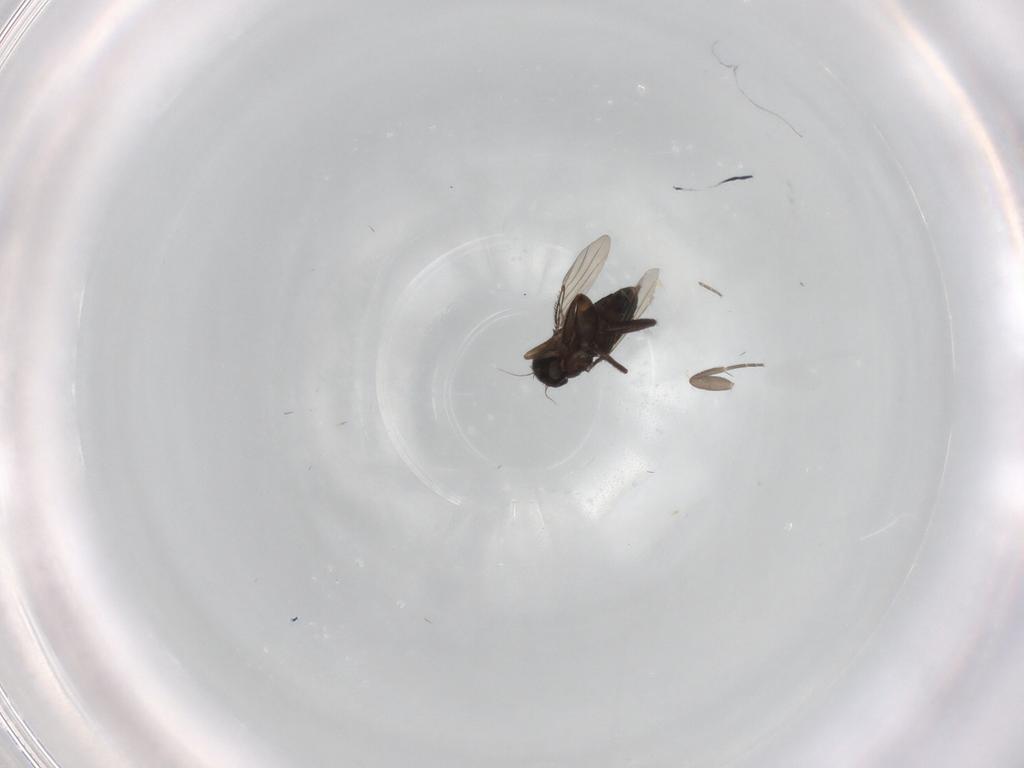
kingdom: Animalia
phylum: Arthropoda
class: Insecta
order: Diptera
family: Phoridae
